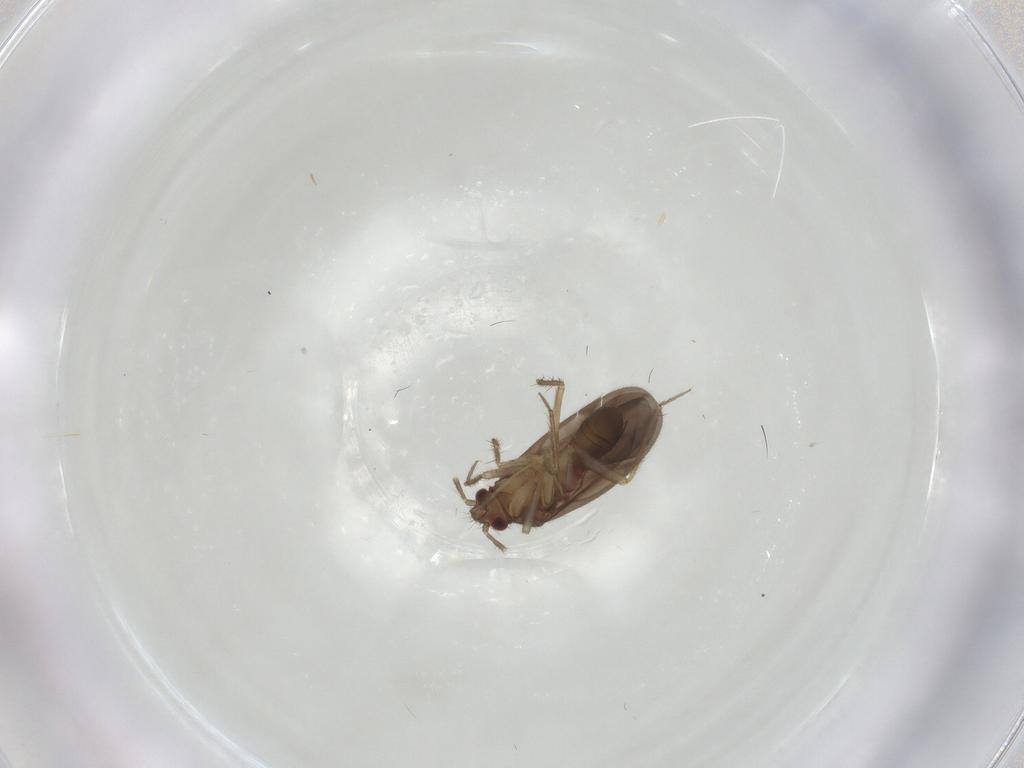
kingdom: Animalia
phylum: Arthropoda
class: Insecta
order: Hemiptera
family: Ceratocombidae
